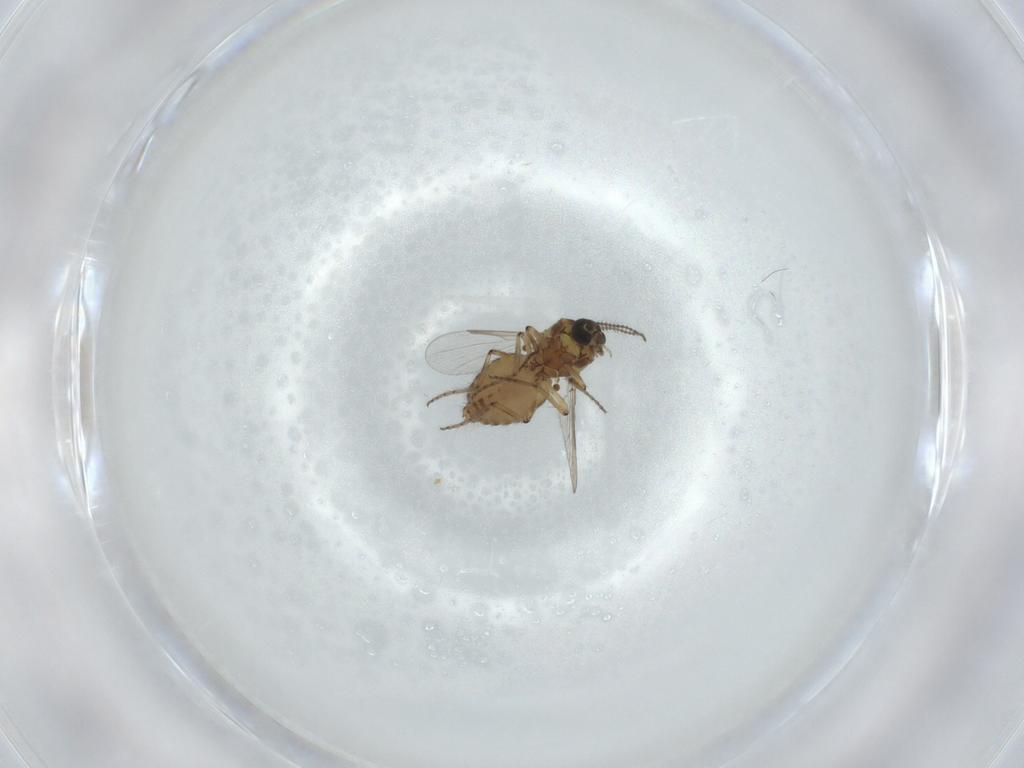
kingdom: Animalia
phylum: Arthropoda
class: Insecta
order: Diptera
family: Ceratopogonidae
